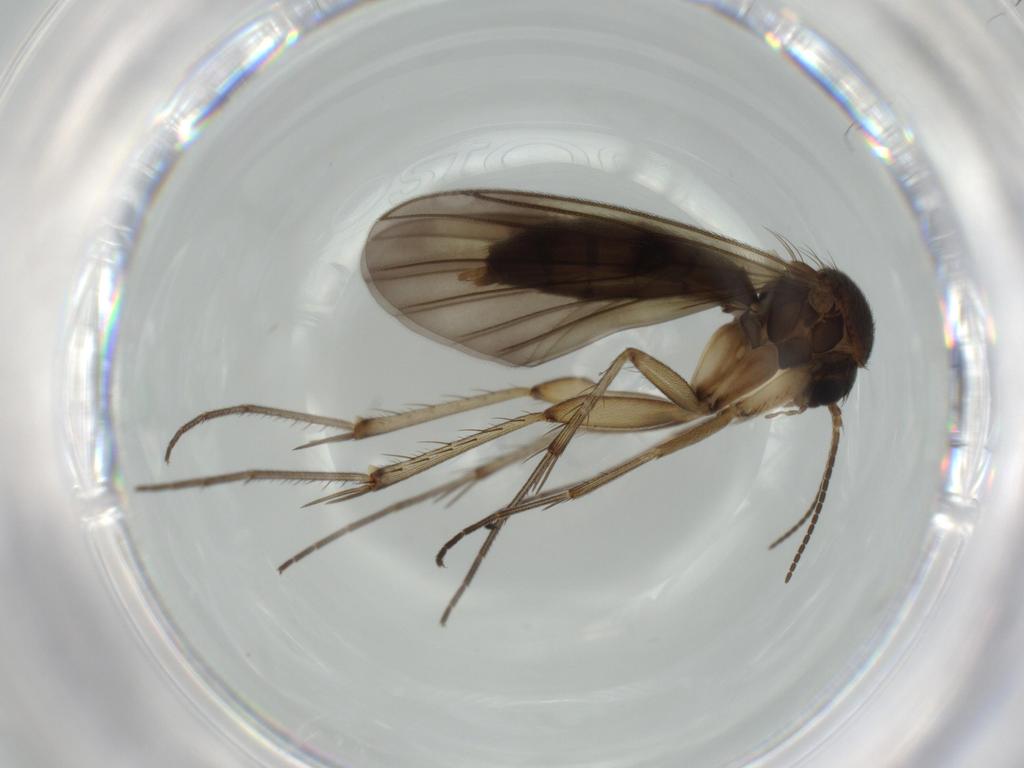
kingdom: Animalia
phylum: Arthropoda
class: Insecta
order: Diptera
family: Mycetophilidae
